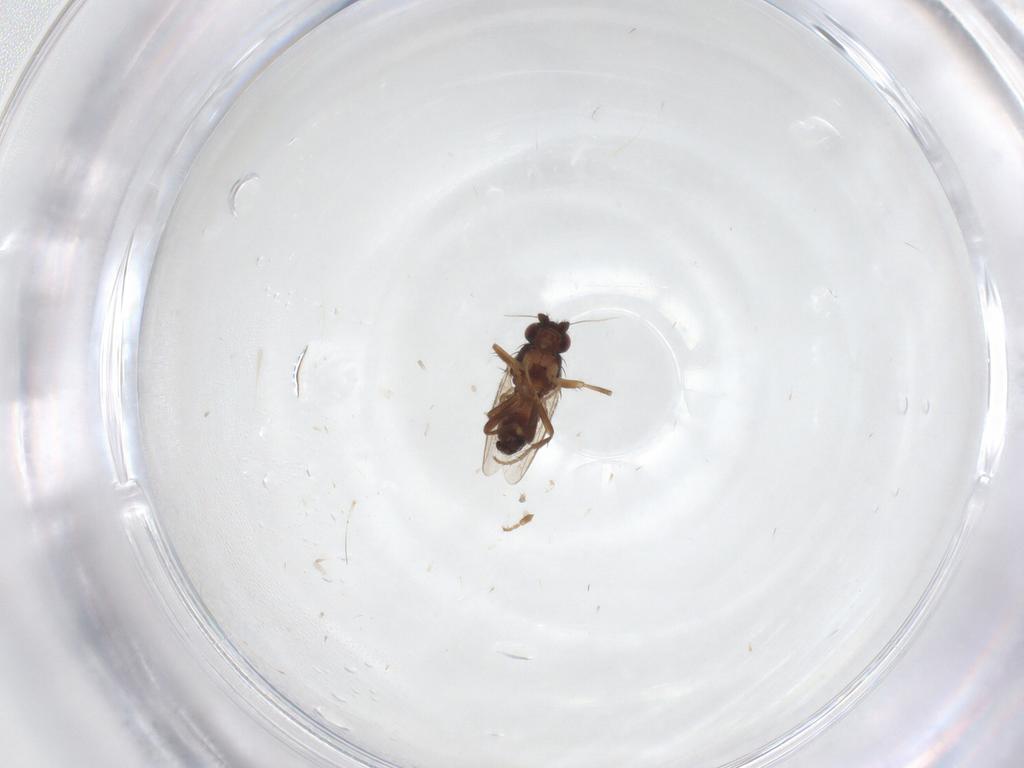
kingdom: Animalia
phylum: Arthropoda
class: Insecta
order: Diptera
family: Sphaeroceridae
